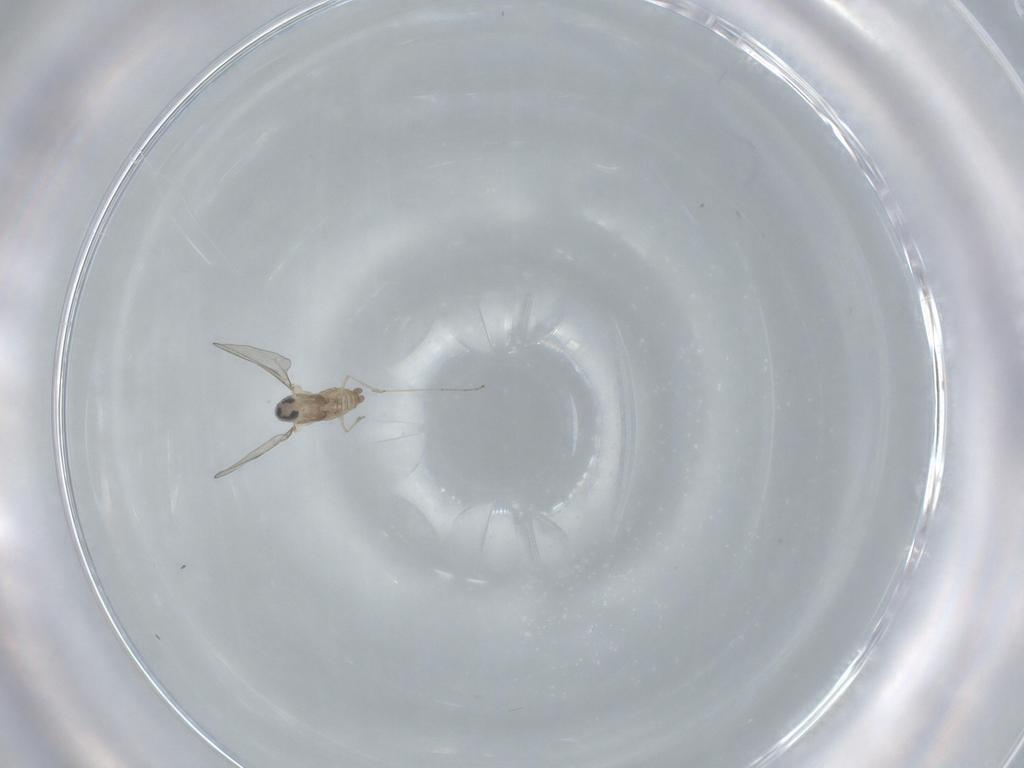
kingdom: Animalia
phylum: Arthropoda
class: Insecta
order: Diptera
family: Cecidomyiidae
